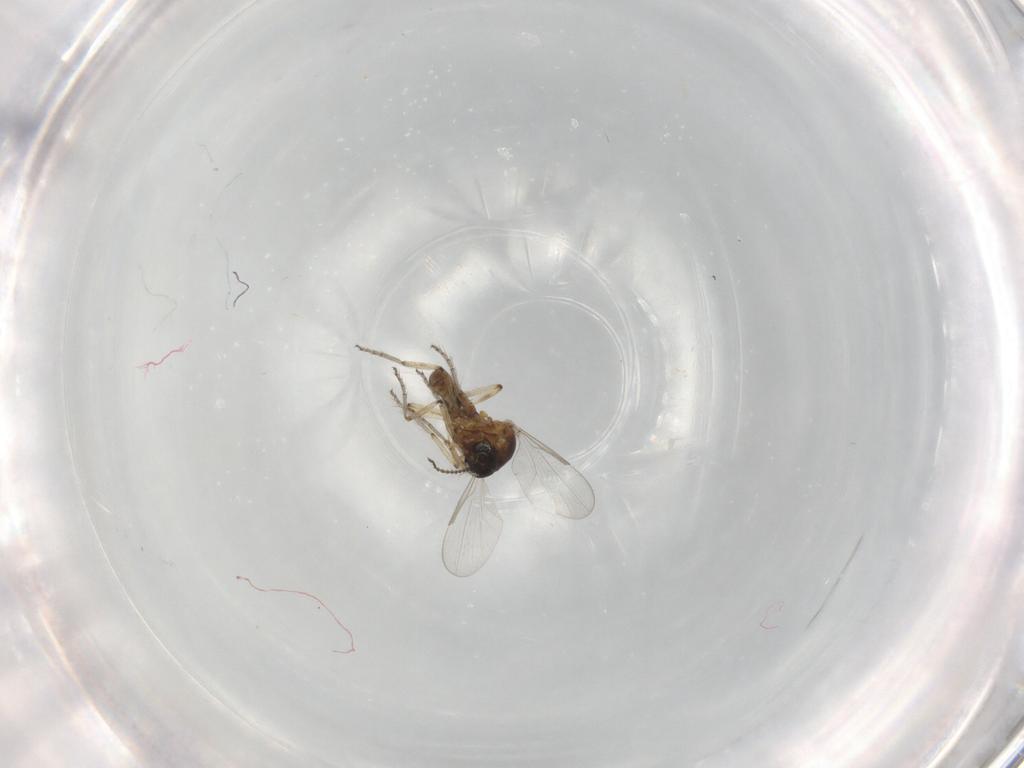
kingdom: Animalia
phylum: Arthropoda
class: Insecta
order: Diptera
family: Ceratopogonidae
